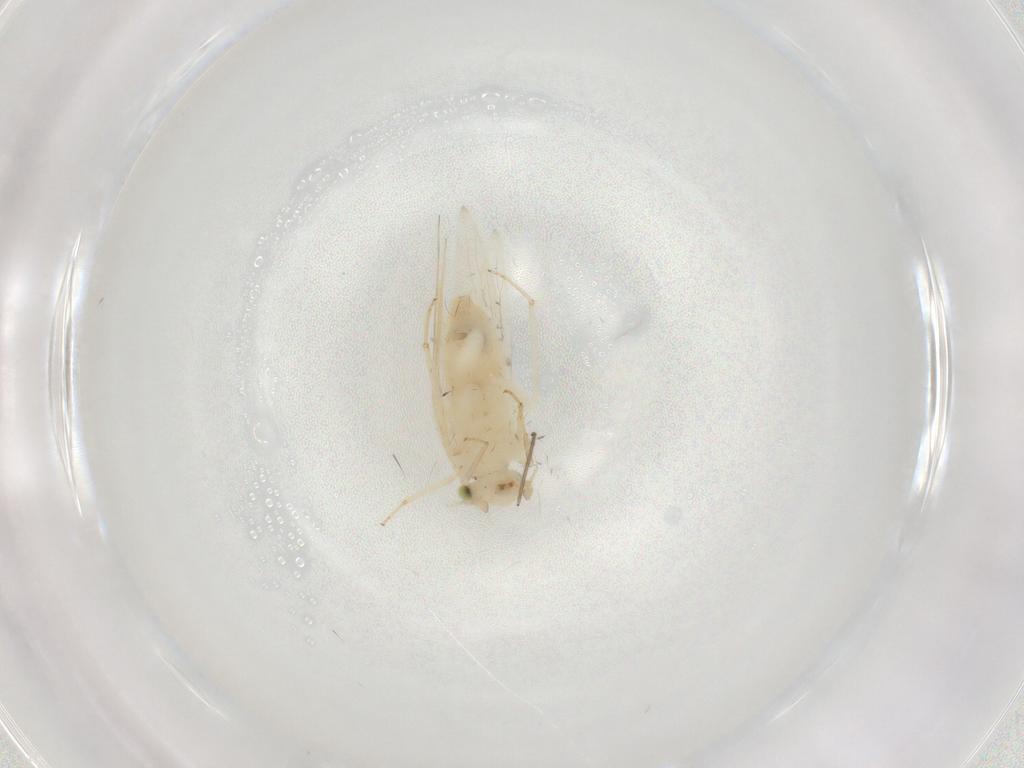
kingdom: Animalia
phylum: Arthropoda
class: Insecta
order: Psocodea
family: Lepidopsocidae
